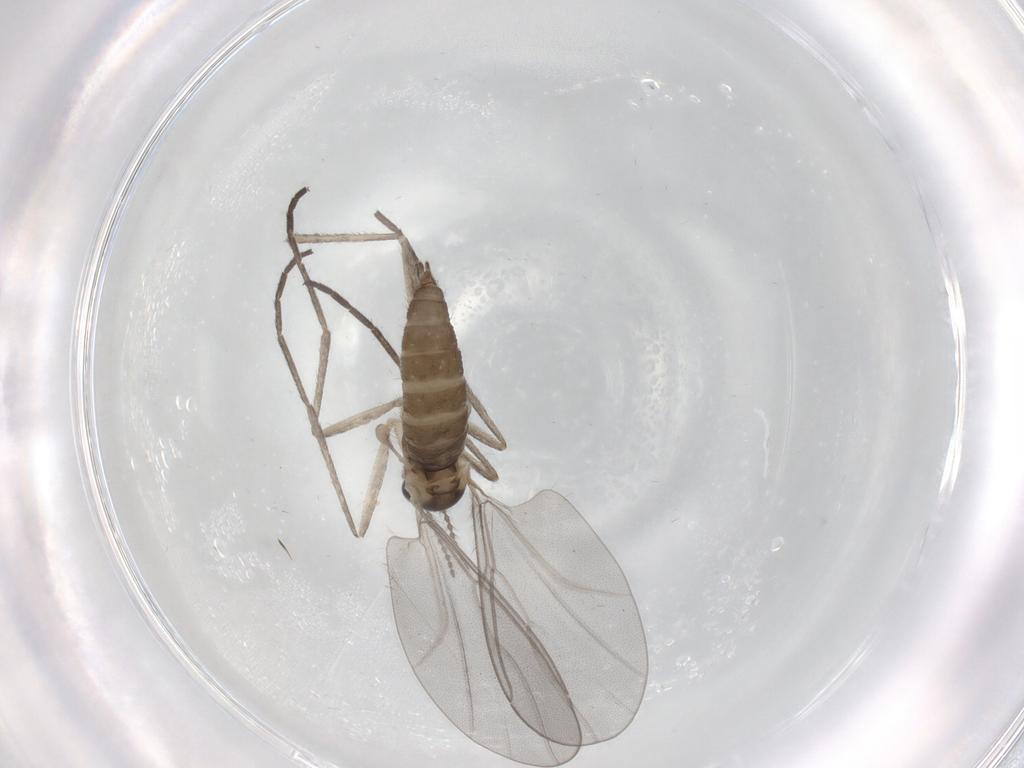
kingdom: Animalia
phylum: Arthropoda
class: Insecta
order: Diptera
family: Cecidomyiidae
